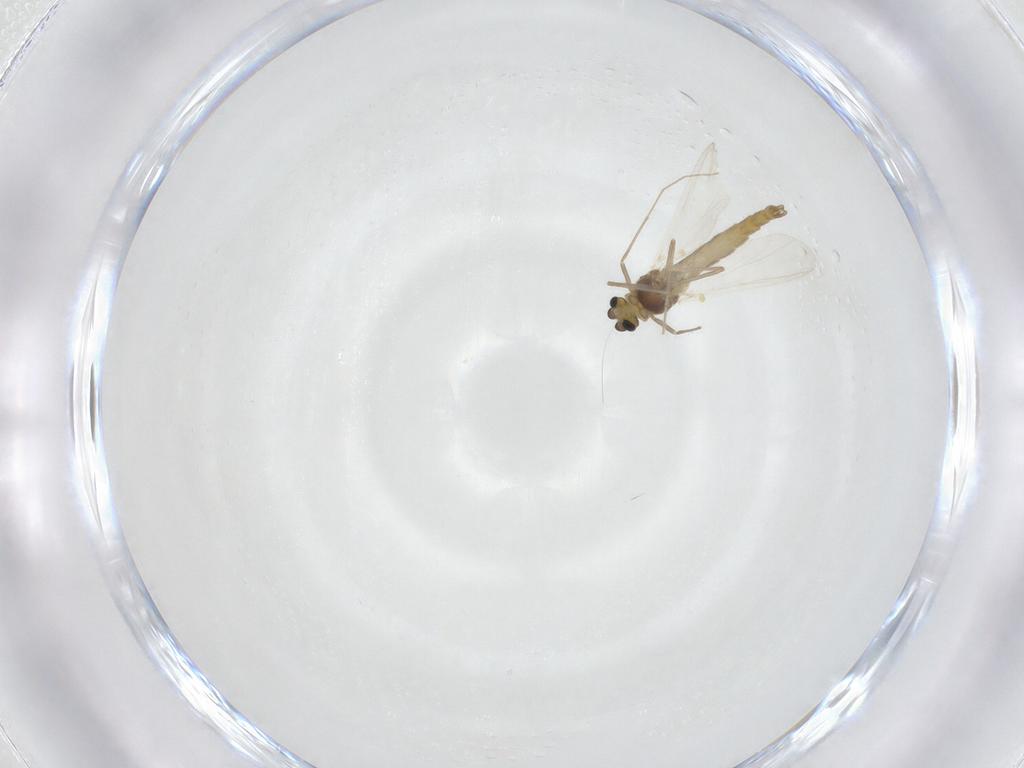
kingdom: Animalia
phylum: Arthropoda
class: Insecta
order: Diptera
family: Chironomidae
